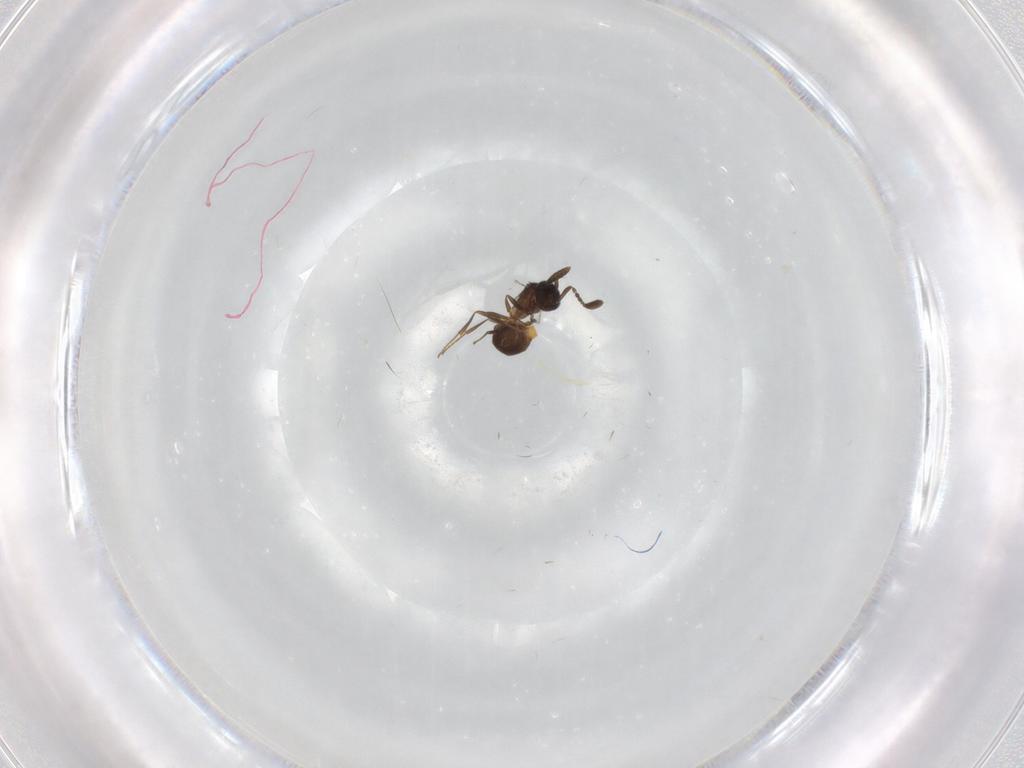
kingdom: Animalia
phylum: Arthropoda
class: Insecta
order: Hymenoptera
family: Scelionidae
